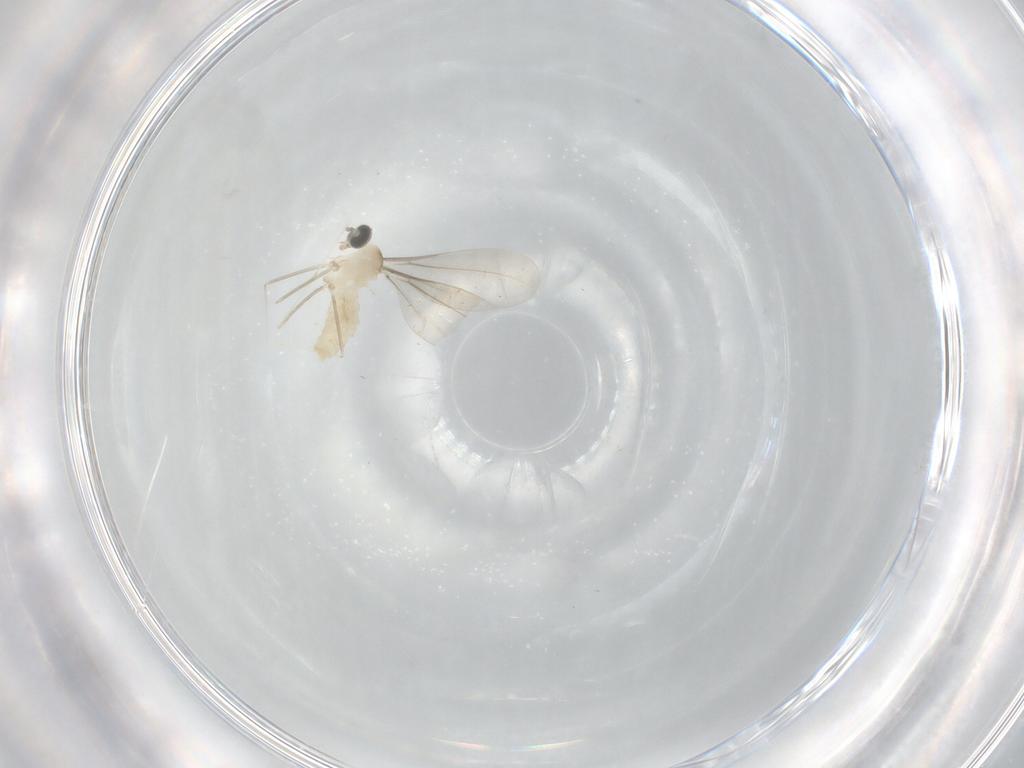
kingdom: Animalia
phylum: Arthropoda
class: Insecta
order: Diptera
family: Cecidomyiidae
